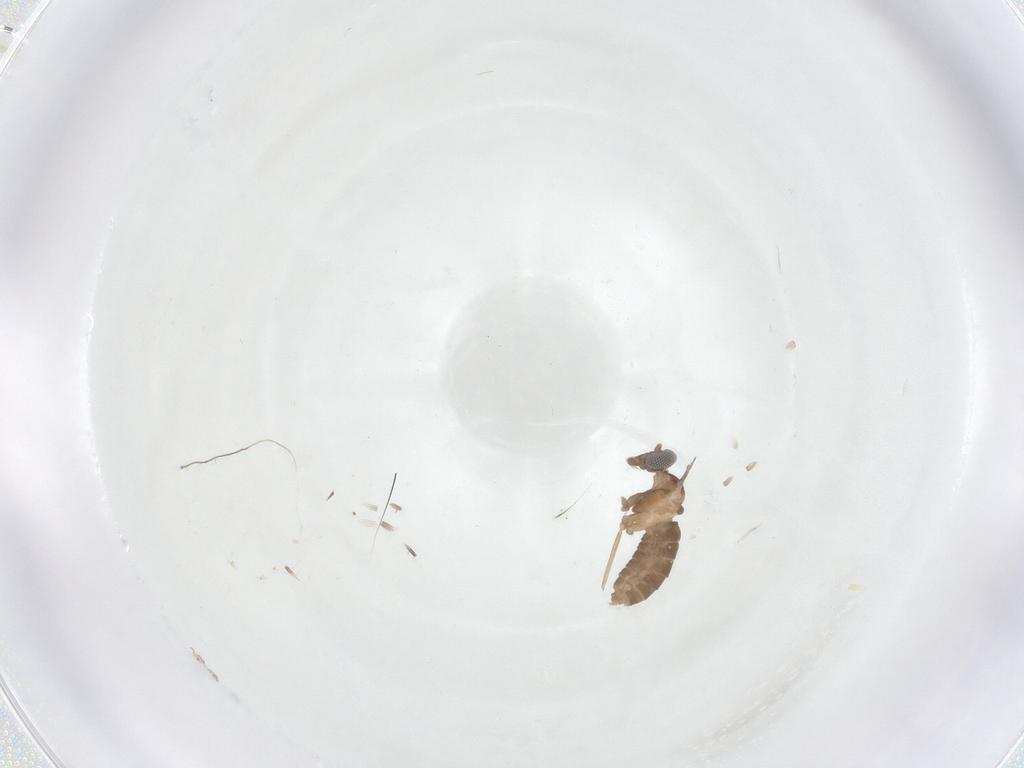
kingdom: Animalia
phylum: Arthropoda
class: Insecta
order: Diptera
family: Cecidomyiidae
